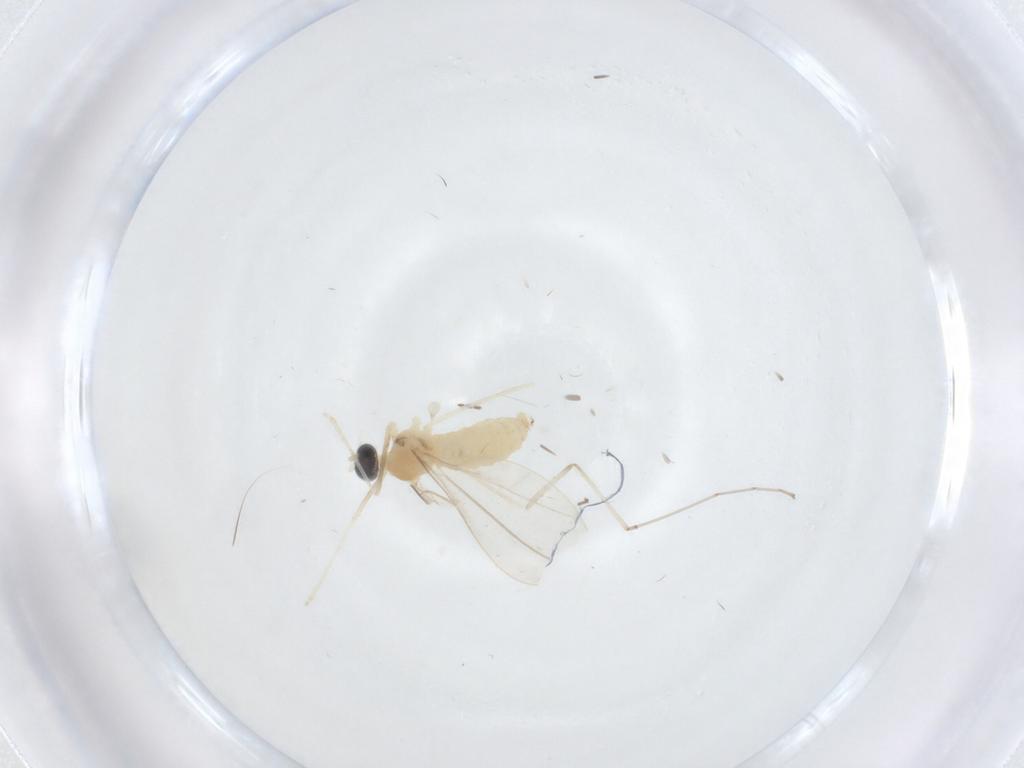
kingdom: Animalia
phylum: Arthropoda
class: Insecta
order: Diptera
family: Cecidomyiidae
